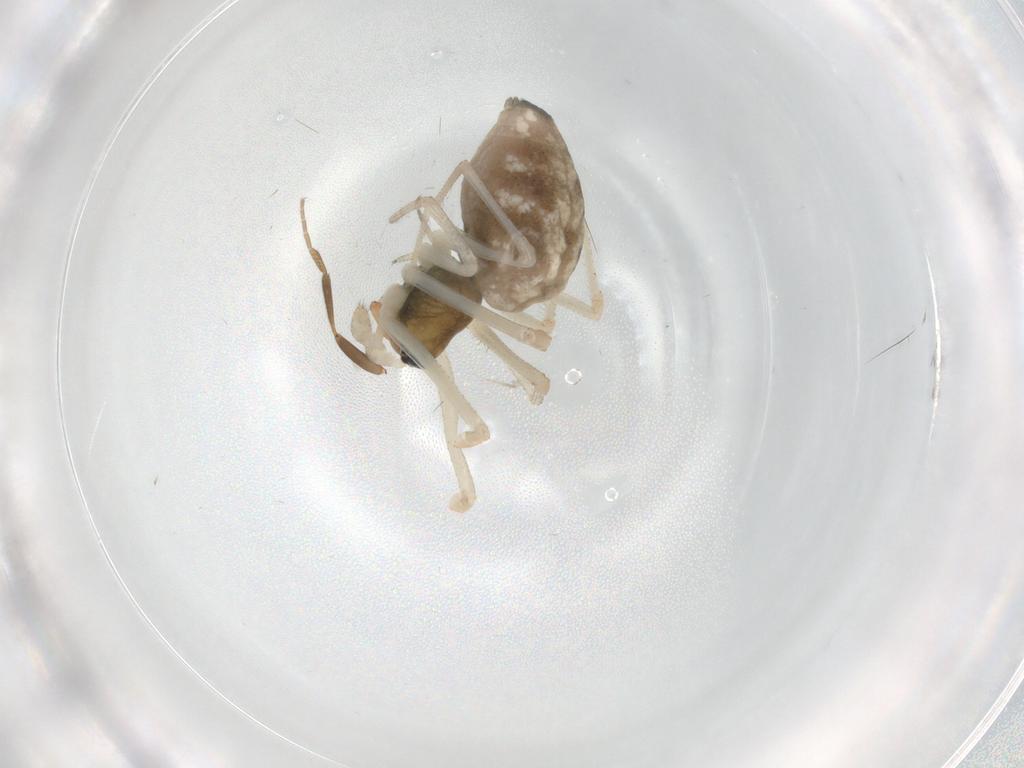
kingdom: Animalia
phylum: Arthropoda
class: Arachnida
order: Araneae
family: Linyphiidae
